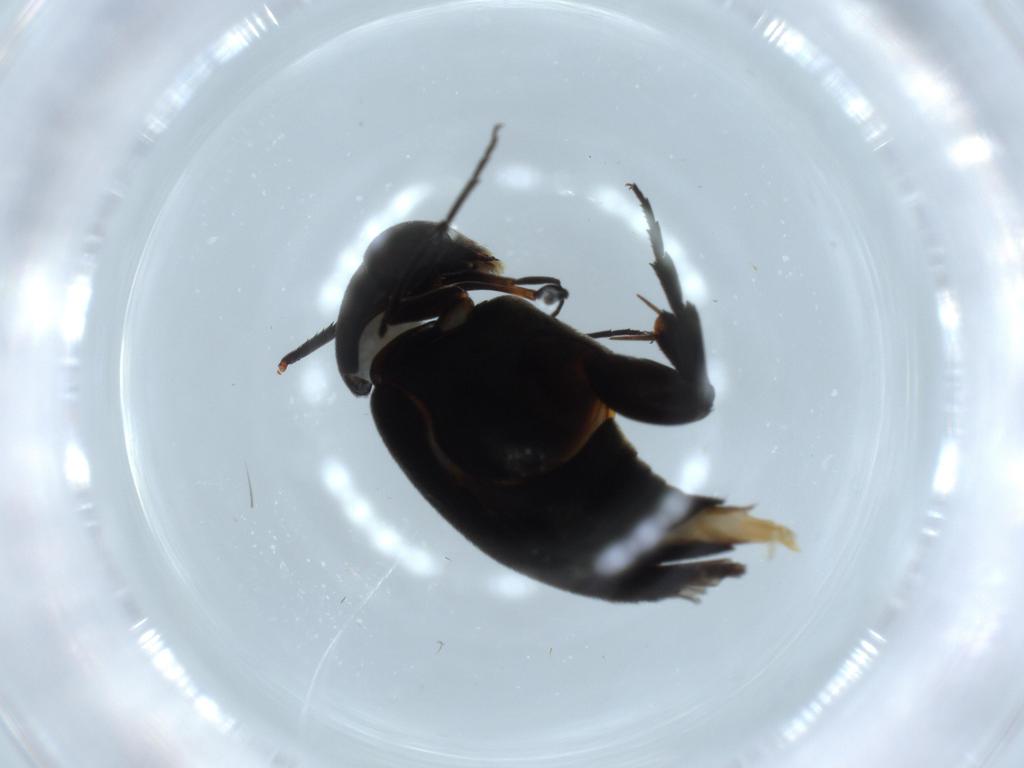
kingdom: Animalia
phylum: Arthropoda
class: Insecta
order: Coleoptera
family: Mordellidae
